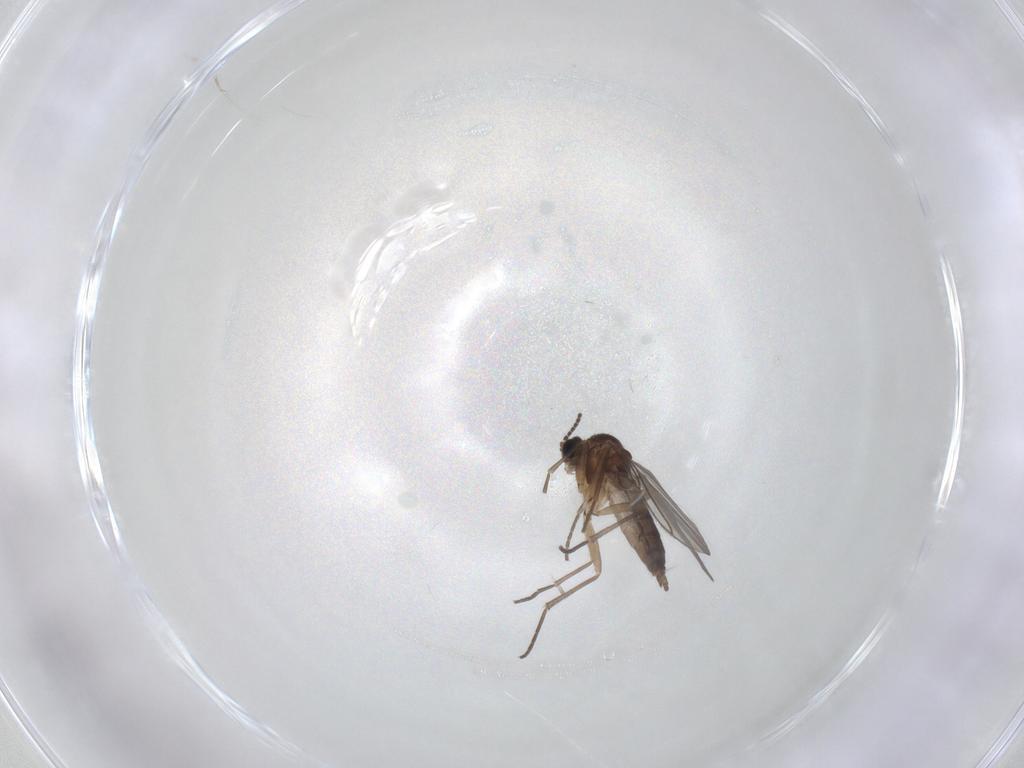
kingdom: Animalia
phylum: Arthropoda
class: Insecta
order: Diptera
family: Sciaridae
